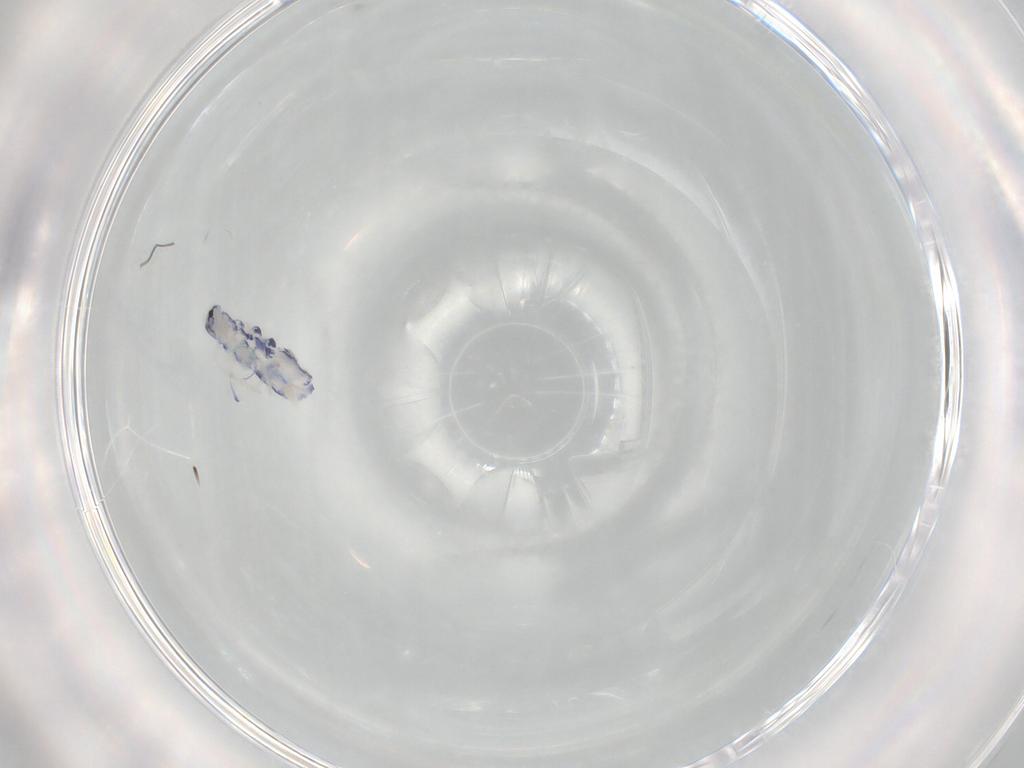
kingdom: Animalia
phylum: Arthropoda
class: Collembola
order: Entomobryomorpha
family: Entomobryidae
